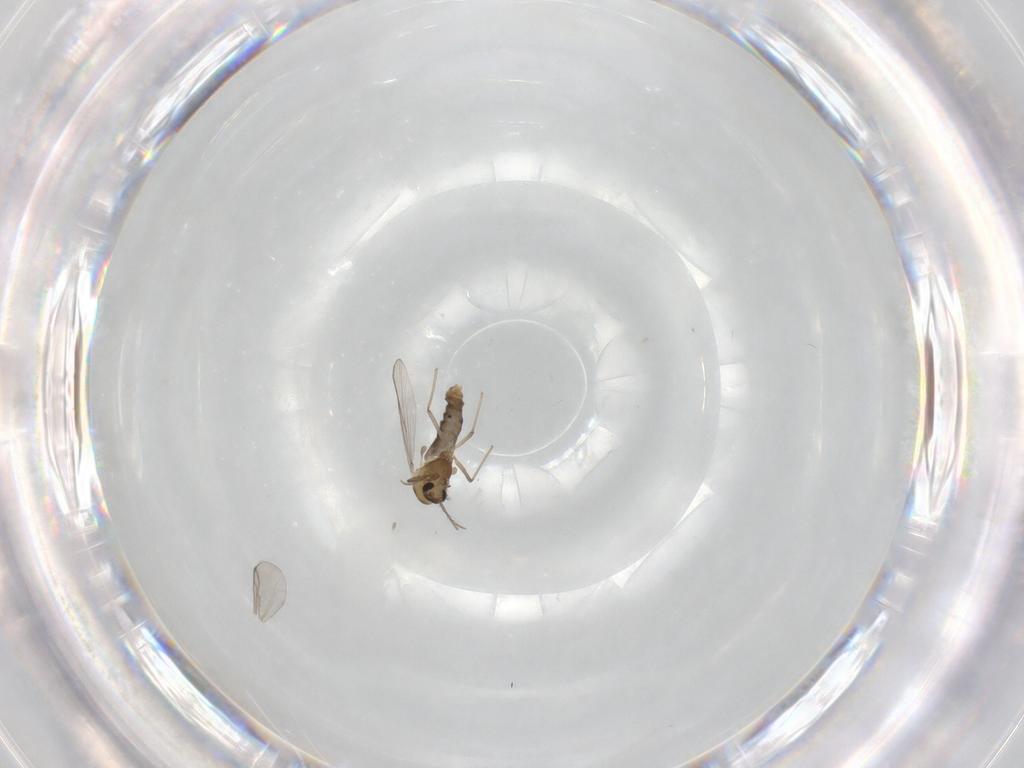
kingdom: Animalia
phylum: Arthropoda
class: Insecta
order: Diptera
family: Chironomidae
